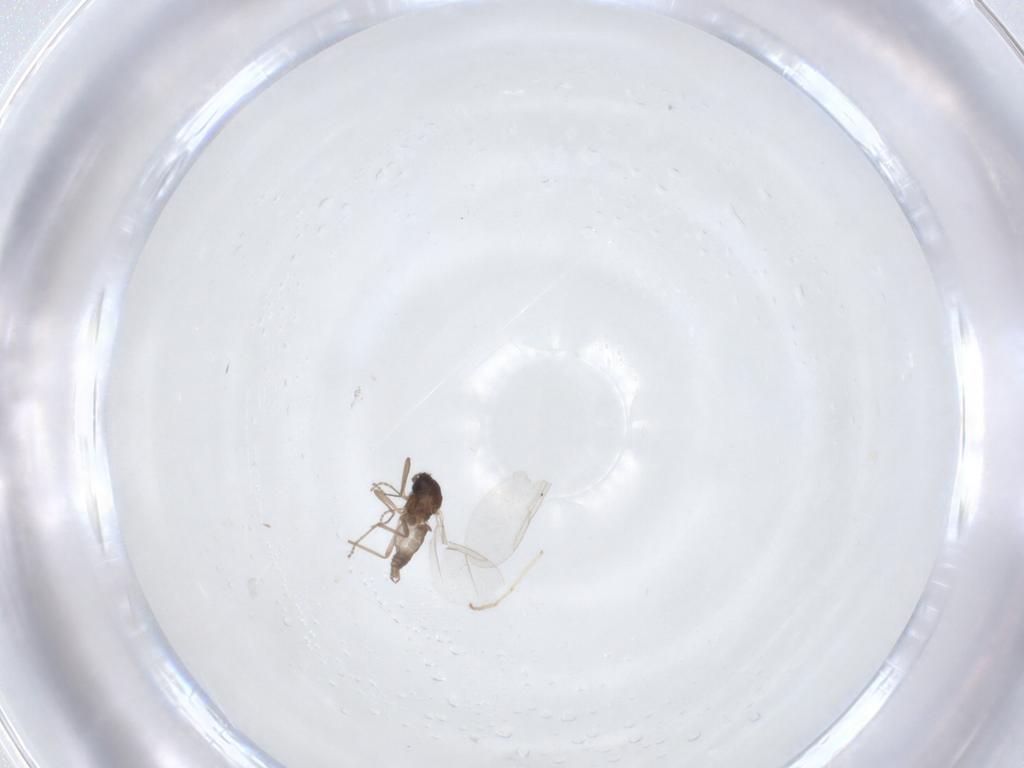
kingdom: Animalia
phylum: Arthropoda
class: Insecta
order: Diptera
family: Cecidomyiidae
